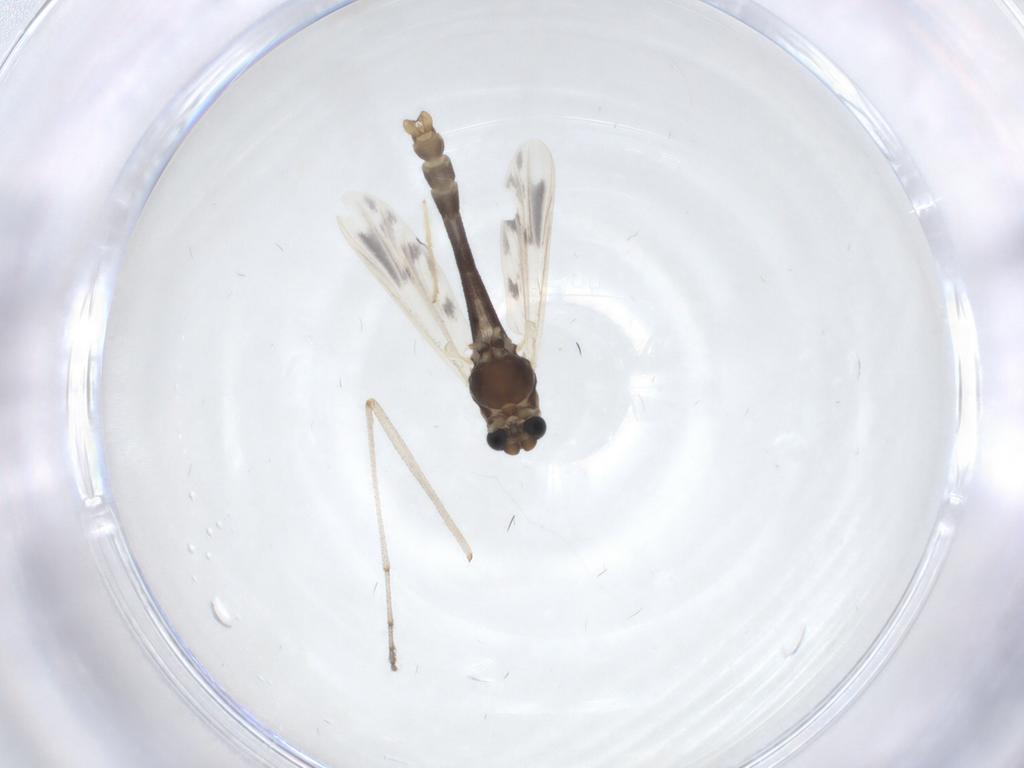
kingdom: Animalia
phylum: Arthropoda
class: Insecta
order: Diptera
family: Chironomidae
